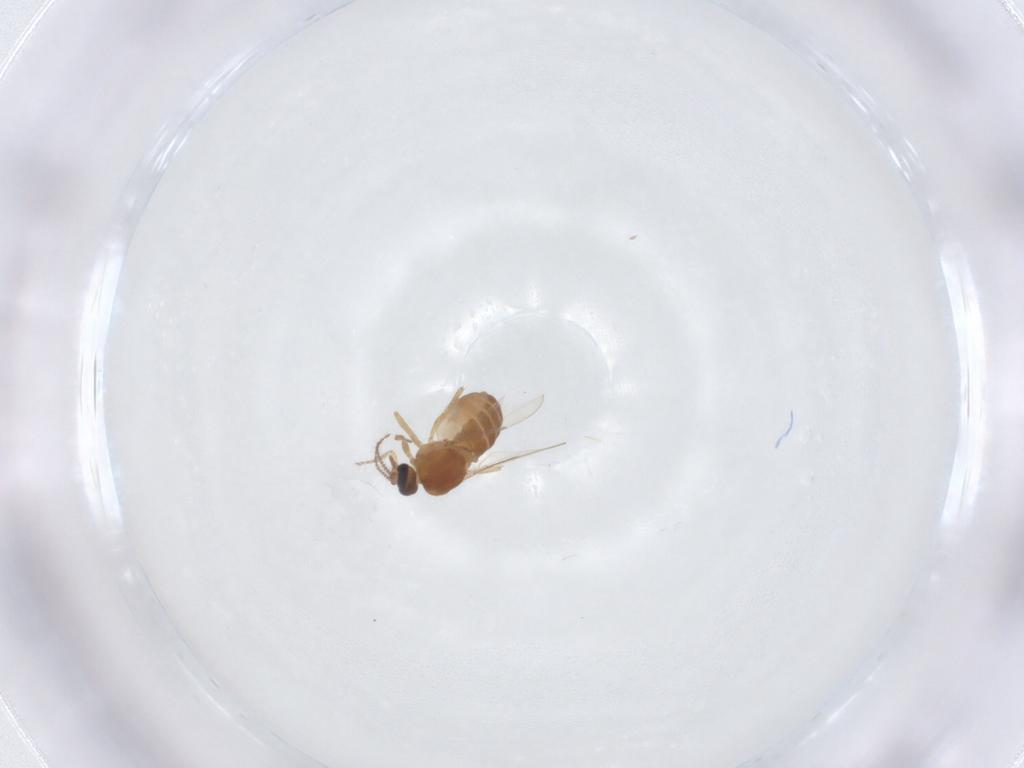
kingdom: Animalia
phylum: Arthropoda
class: Insecta
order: Diptera
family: Ceratopogonidae
